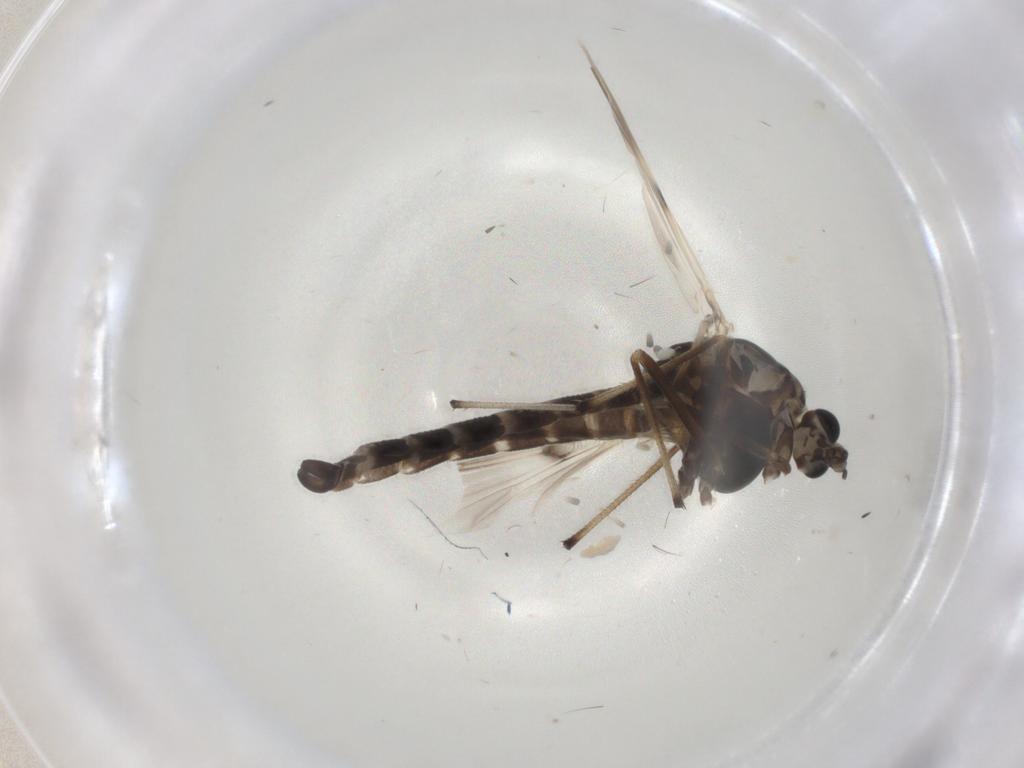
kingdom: Animalia
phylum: Arthropoda
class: Insecta
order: Diptera
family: Chironomidae
